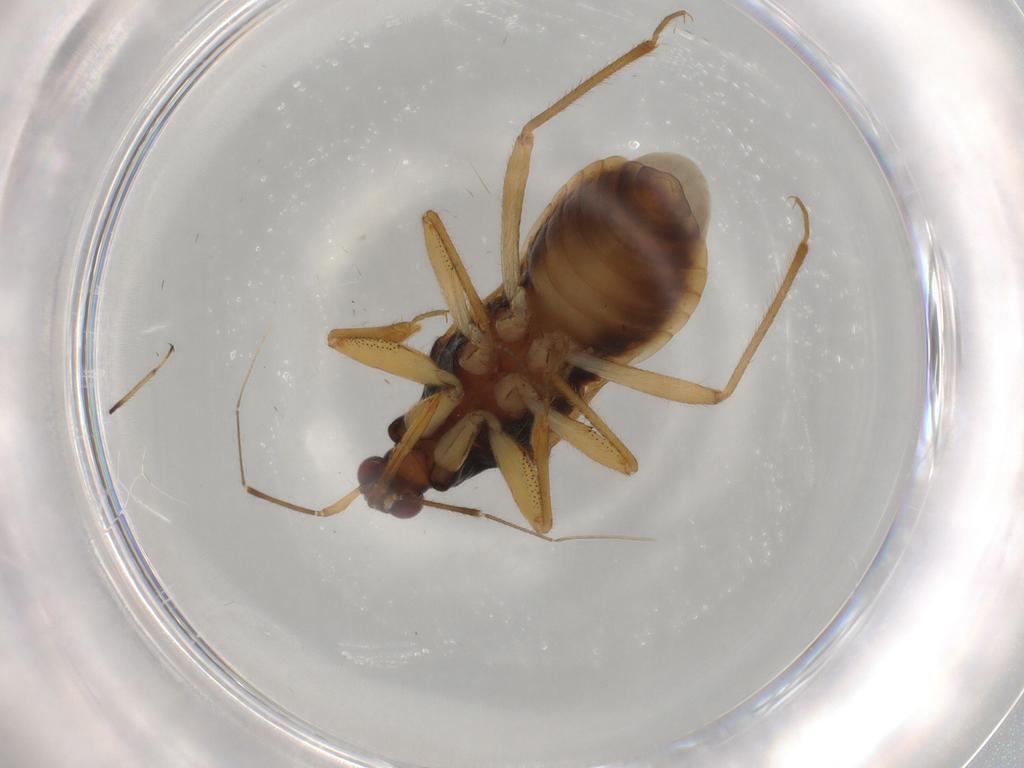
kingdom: Animalia
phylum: Arthropoda
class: Insecta
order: Hemiptera
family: Nabidae
